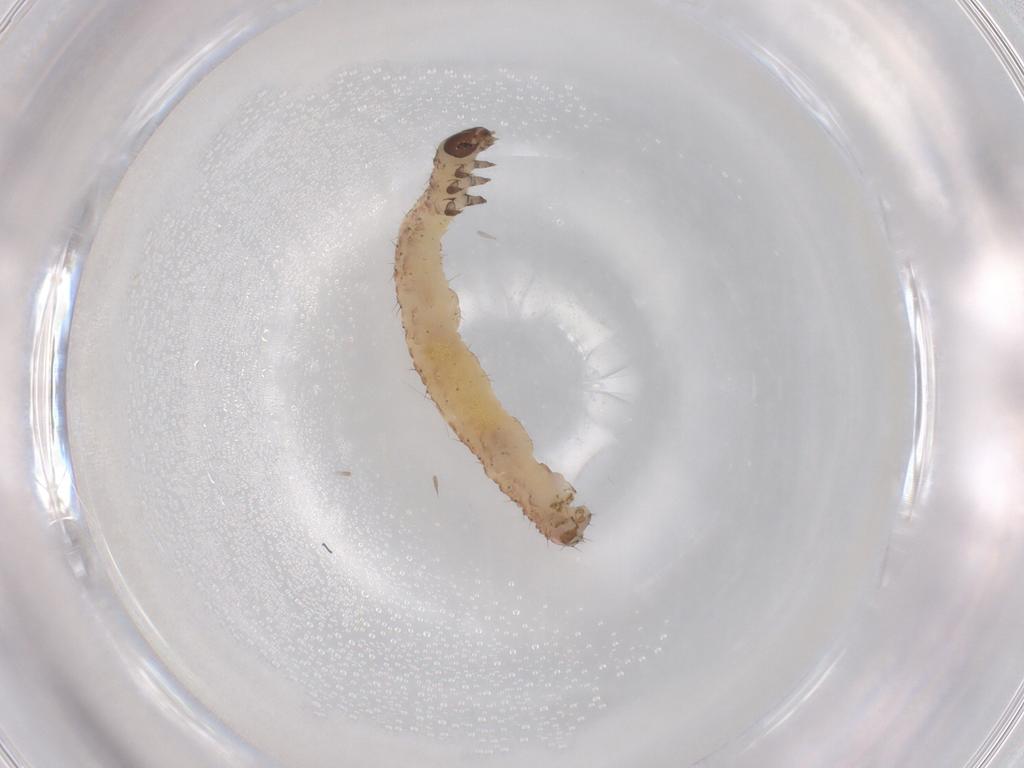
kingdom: Animalia
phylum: Arthropoda
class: Insecta
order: Lepidoptera
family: Geometridae
